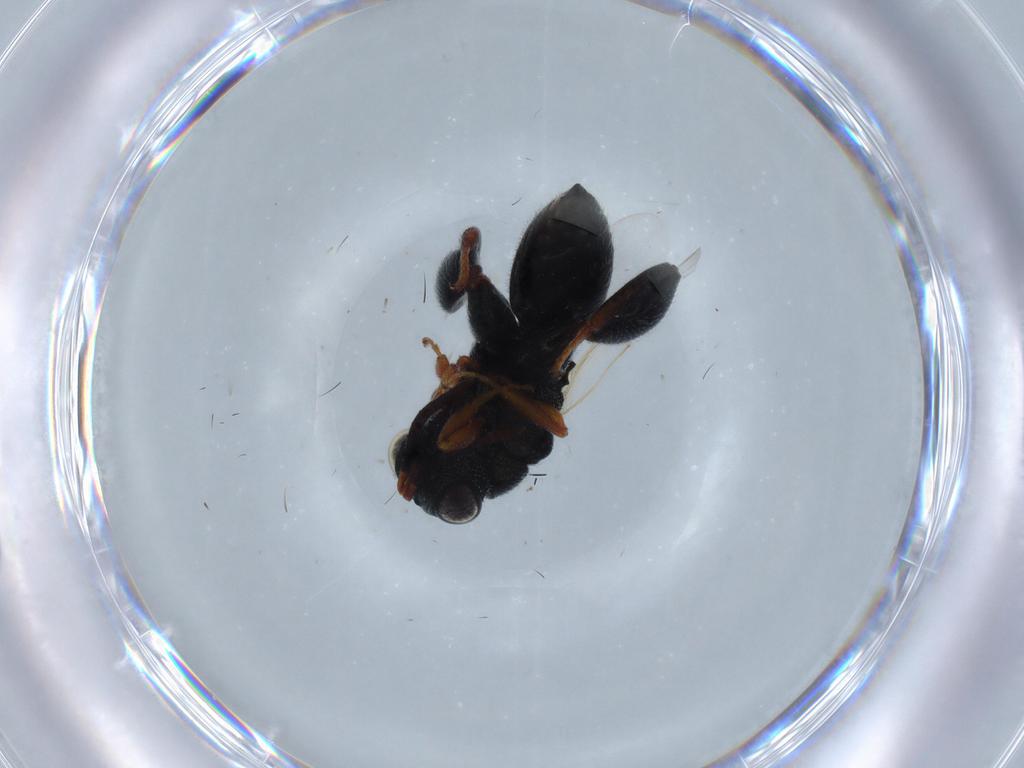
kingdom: Animalia
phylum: Arthropoda
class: Insecta
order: Hymenoptera
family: Chalcididae
